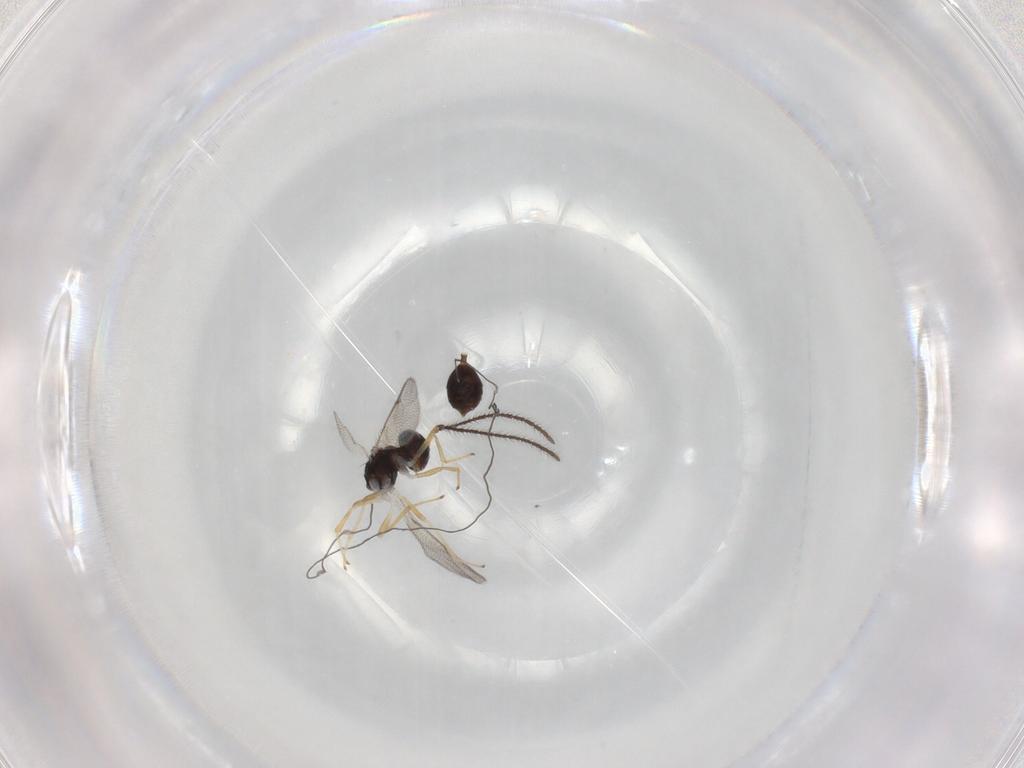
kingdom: Animalia
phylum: Arthropoda
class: Insecta
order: Hymenoptera
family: Diparidae
